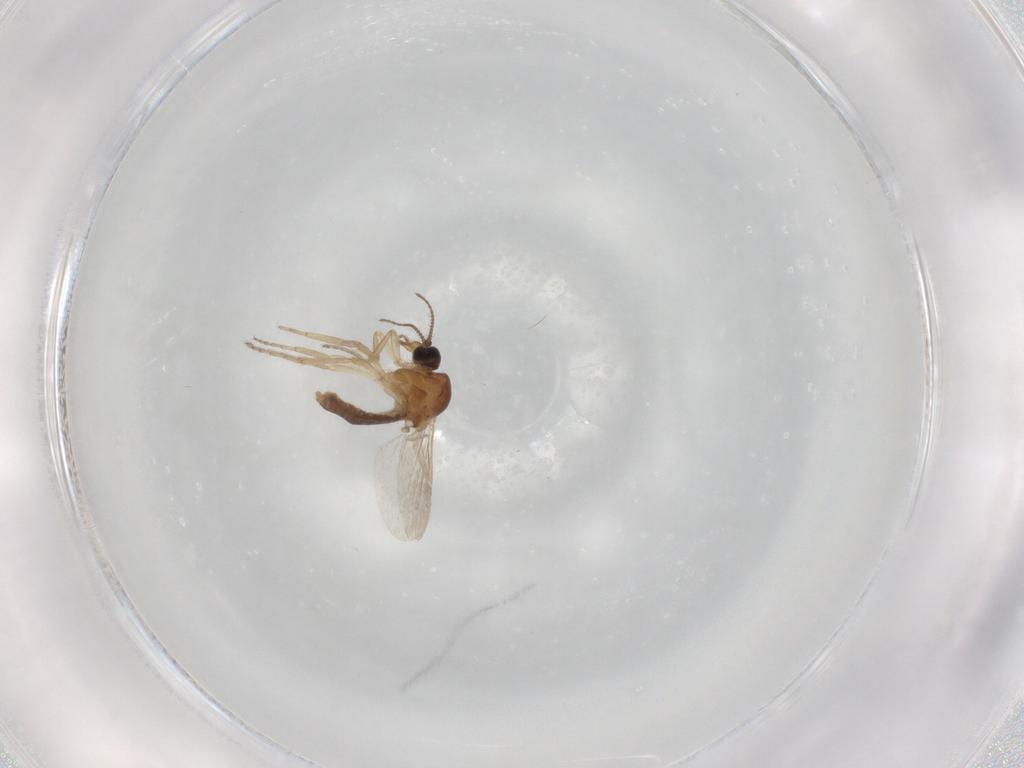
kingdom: Animalia
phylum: Arthropoda
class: Insecta
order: Diptera
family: Ceratopogonidae
